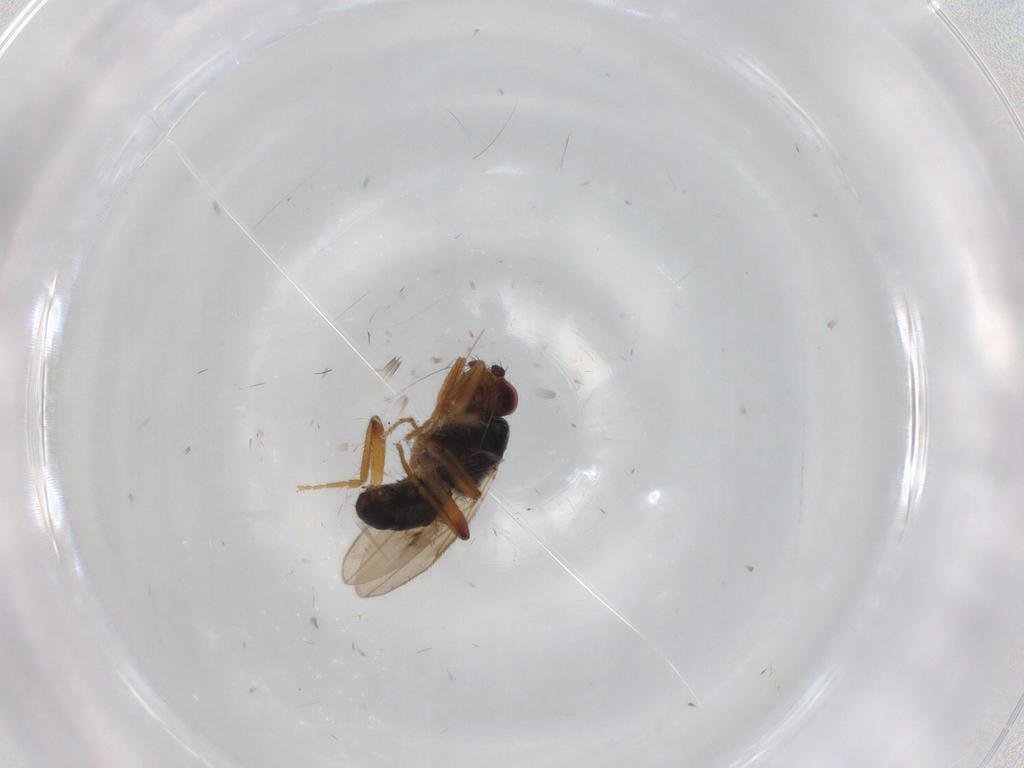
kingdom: Animalia
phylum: Arthropoda
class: Insecta
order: Diptera
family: Sphaeroceridae
